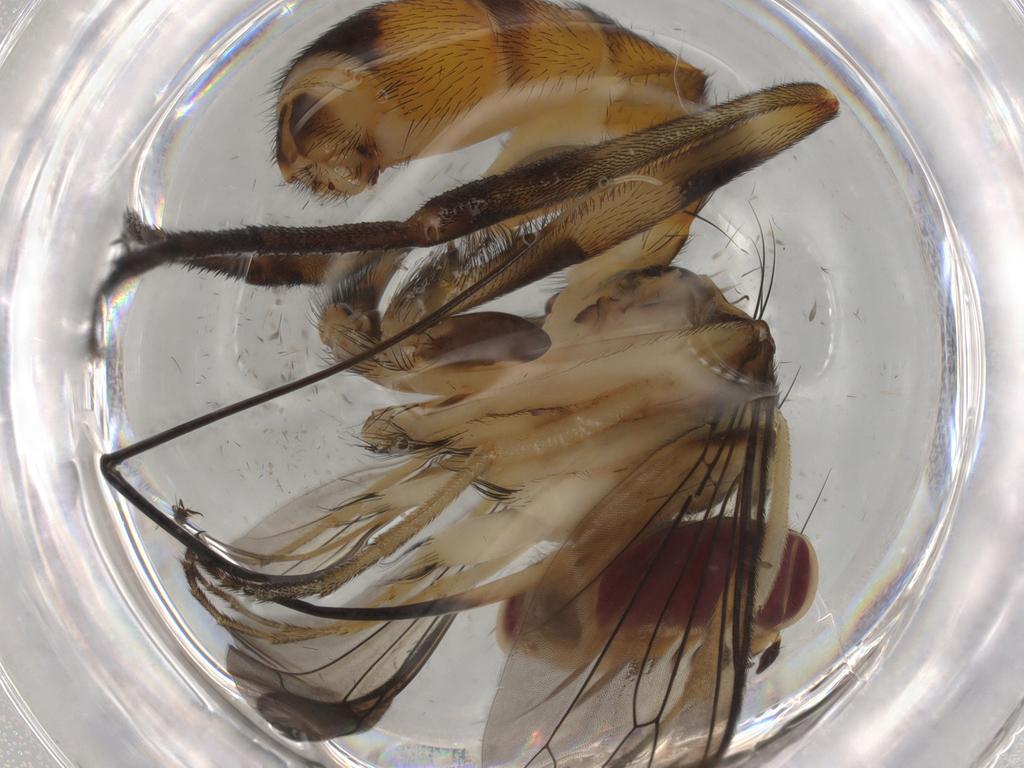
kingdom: Animalia
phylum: Arthropoda
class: Insecta
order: Diptera
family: Ceratopogonidae
